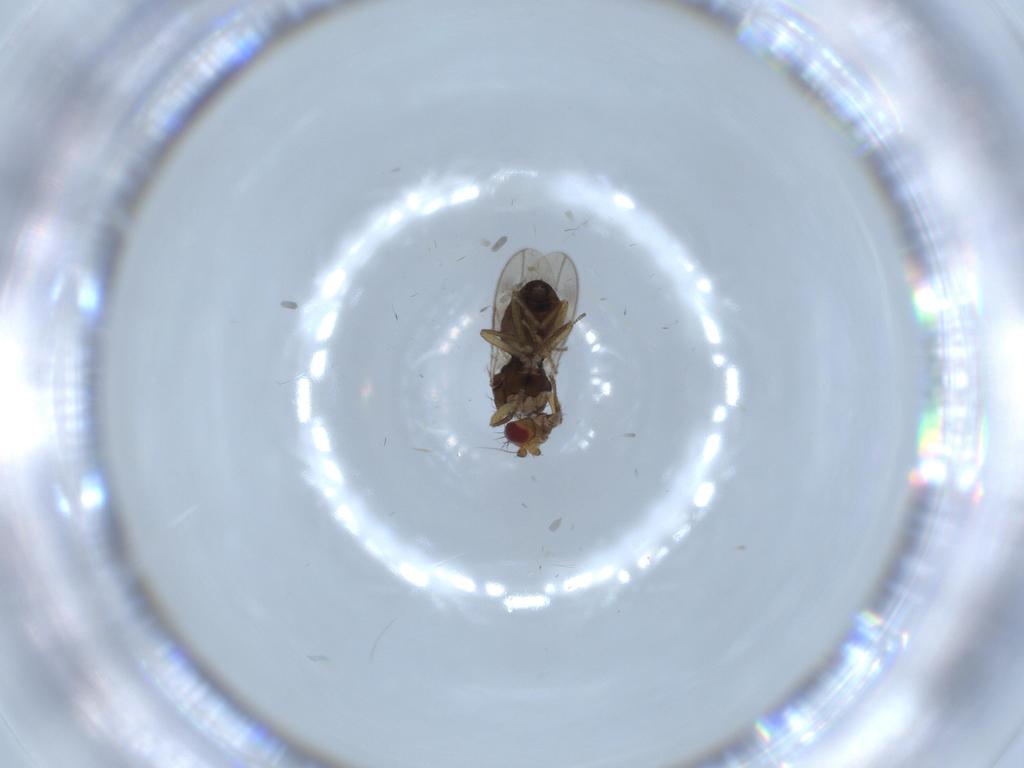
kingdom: Animalia
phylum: Arthropoda
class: Insecta
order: Diptera
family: Sphaeroceridae
